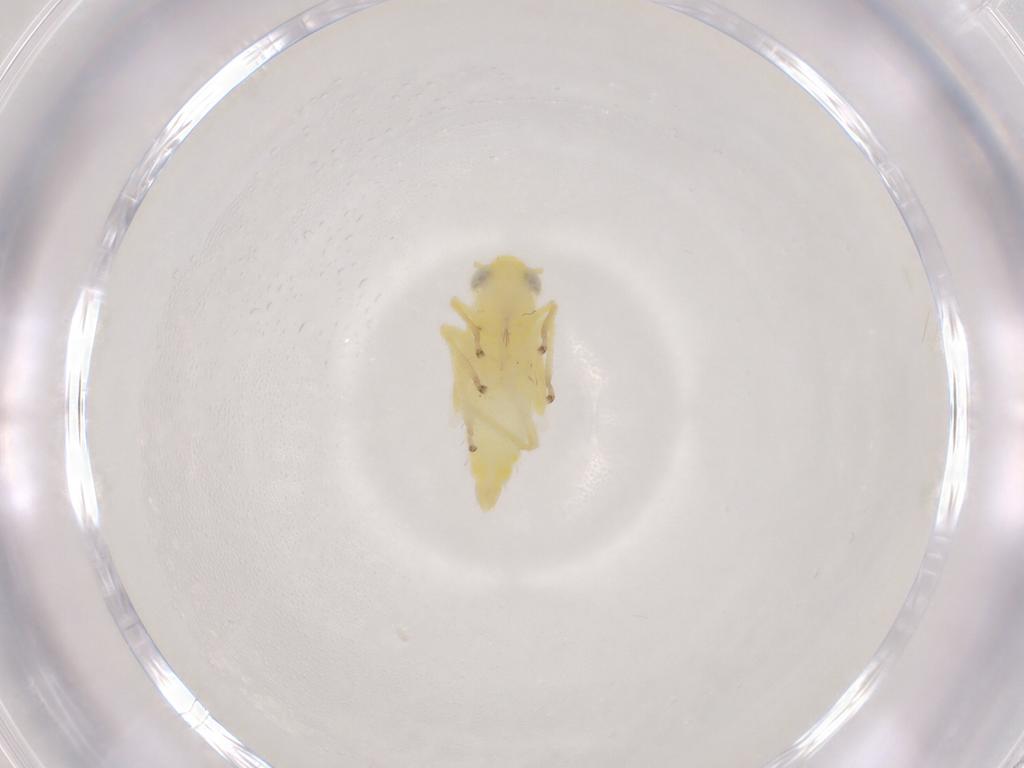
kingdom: Animalia
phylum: Arthropoda
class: Insecta
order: Hemiptera
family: Cicadellidae
